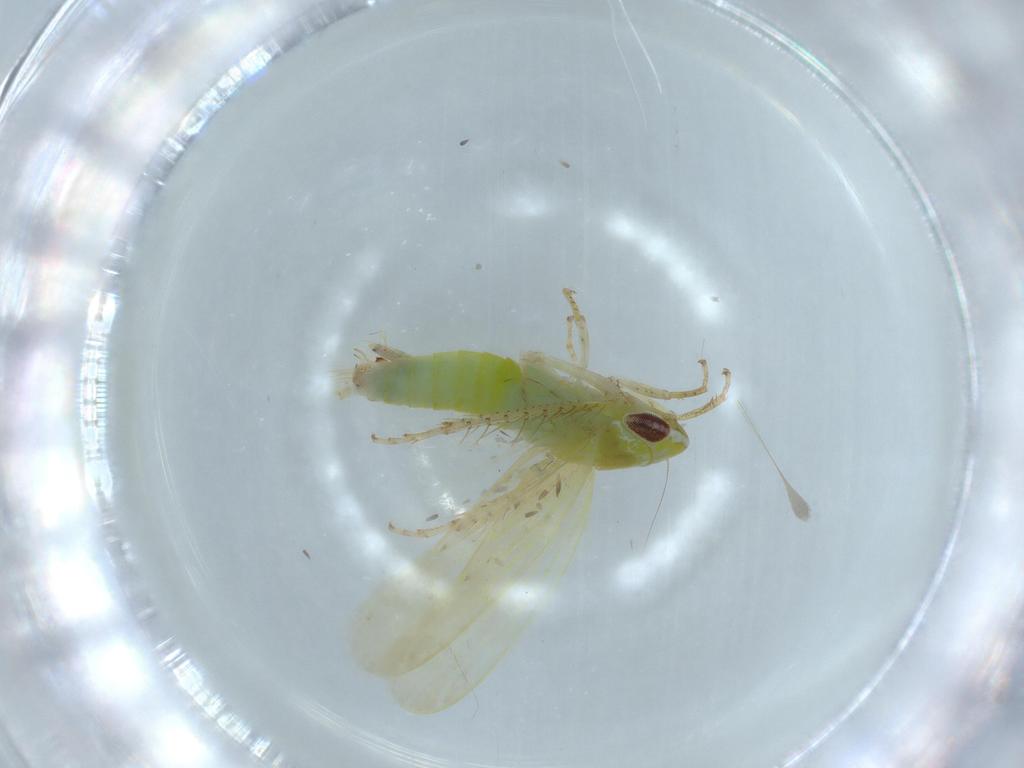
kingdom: Animalia
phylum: Arthropoda
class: Insecta
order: Hemiptera
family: Cicadellidae
